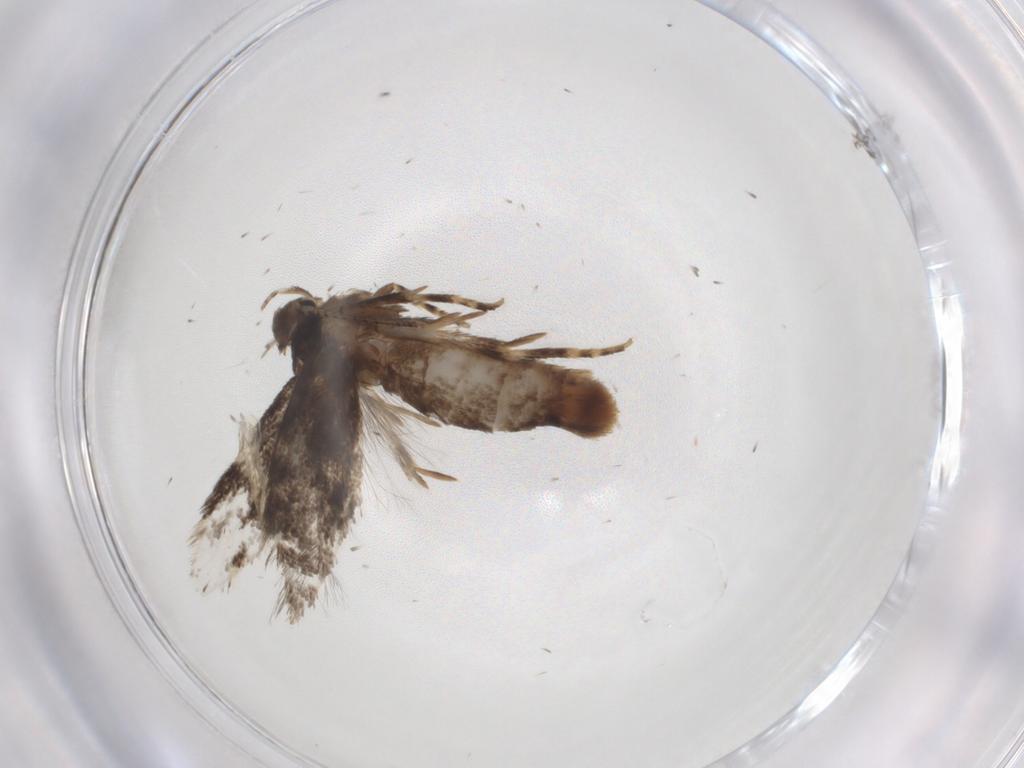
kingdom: Animalia
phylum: Arthropoda
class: Insecta
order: Lepidoptera
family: Elachistidae
